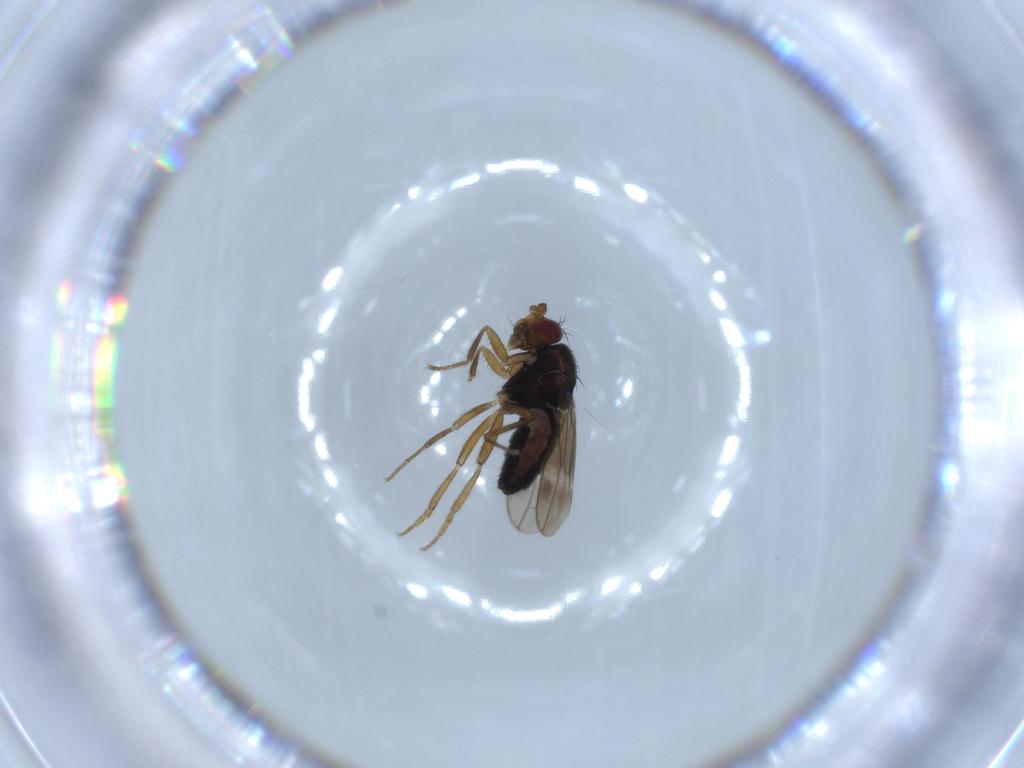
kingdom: Animalia
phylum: Arthropoda
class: Insecta
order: Diptera
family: Sphaeroceridae
